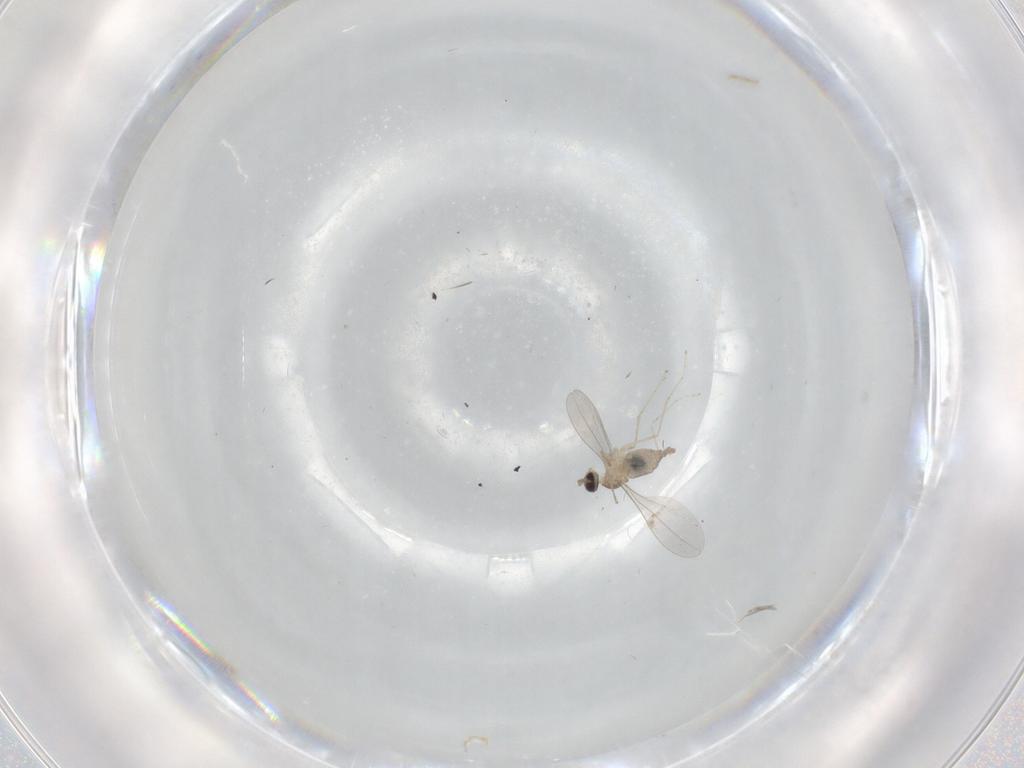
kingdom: Animalia
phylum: Arthropoda
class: Insecta
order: Diptera
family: Cecidomyiidae
